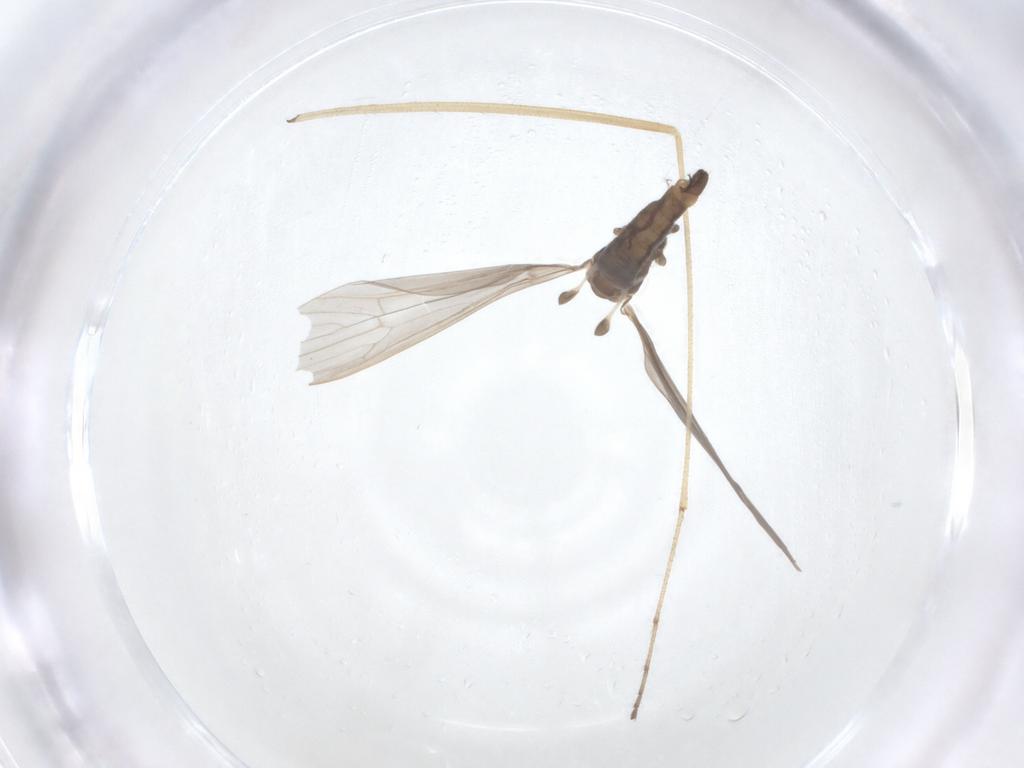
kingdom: Animalia
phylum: Arthropoda
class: Insecta
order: Diptera
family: Limoniidae
